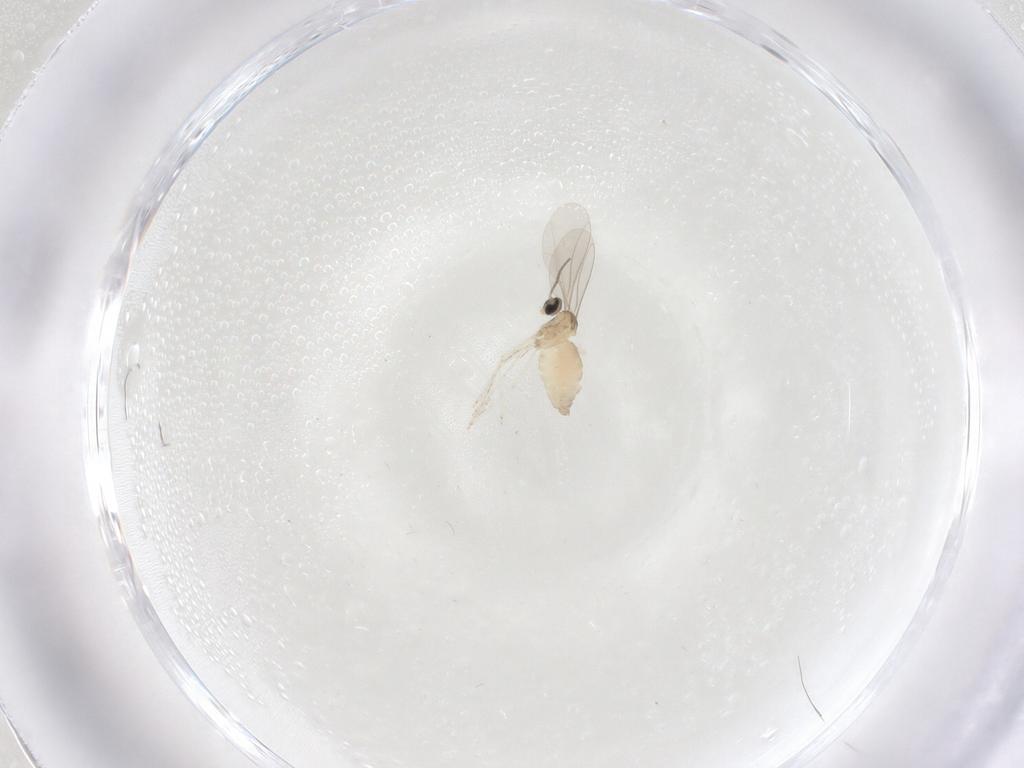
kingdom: Animalia
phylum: Arthropoda
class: Insecta
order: Diptera
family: Cecidomyiidae
